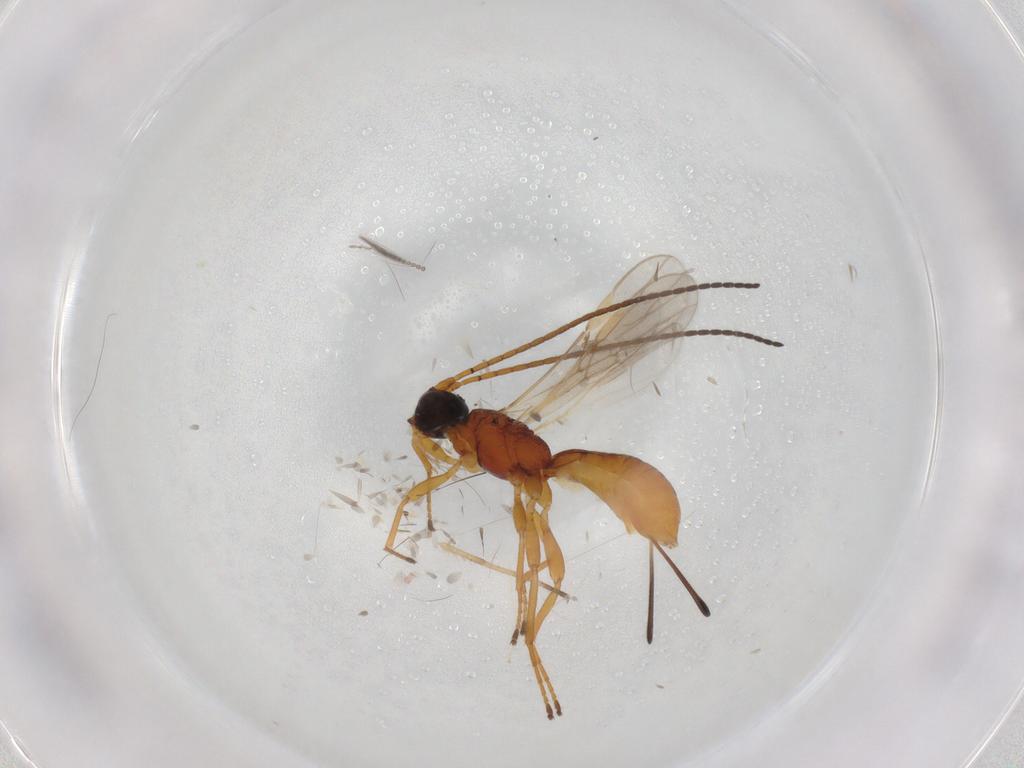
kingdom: Animalia
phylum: Arthropoda
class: Insecta
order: Hymenoptera
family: Braconidae
